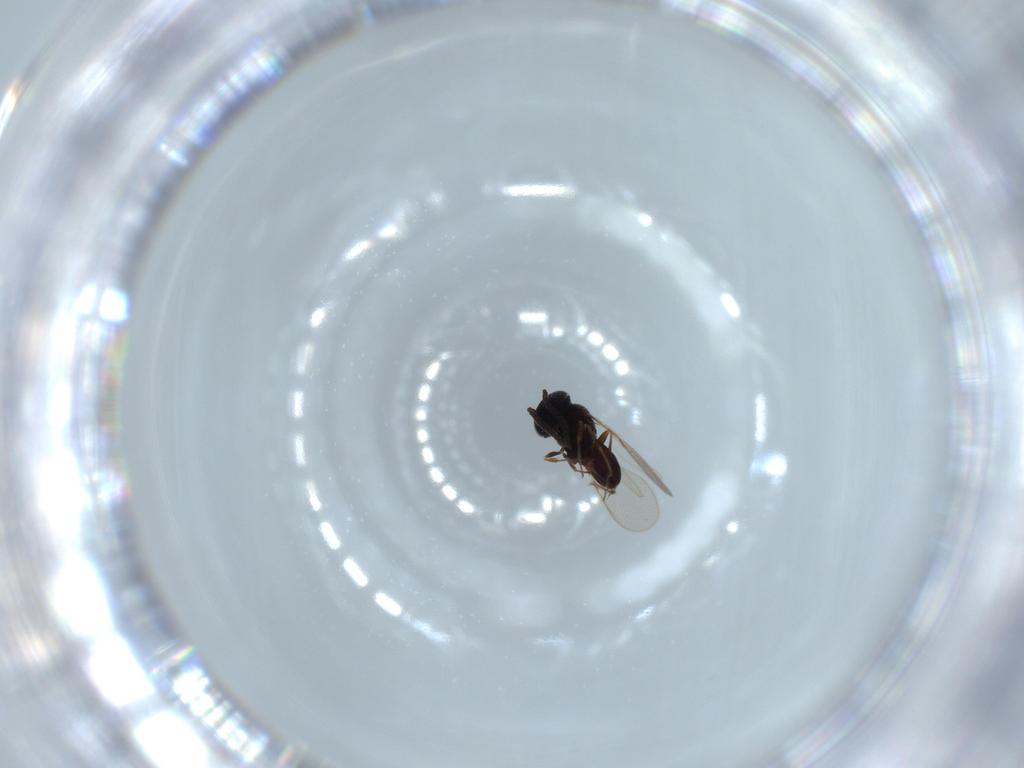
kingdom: Animalia
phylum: Arthropoda
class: Insecta
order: Hymenoptera
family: Scelionidae
